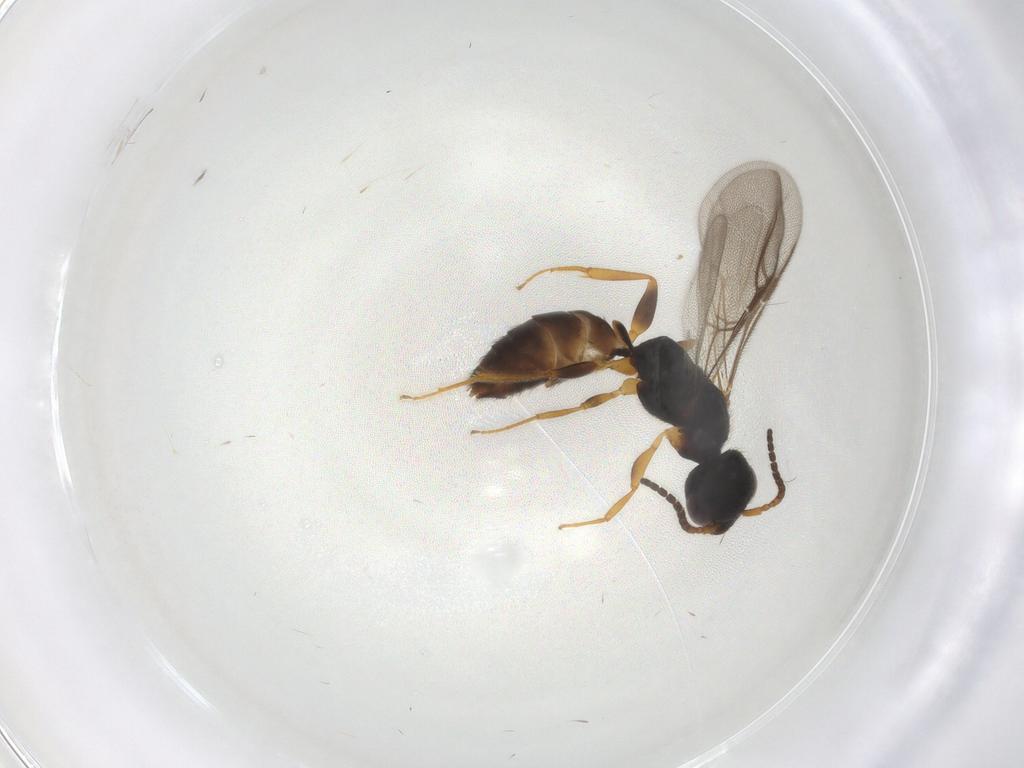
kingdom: Animalia
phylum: Arthropoda
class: Insecta
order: Hymenoptera
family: Bethylidae
